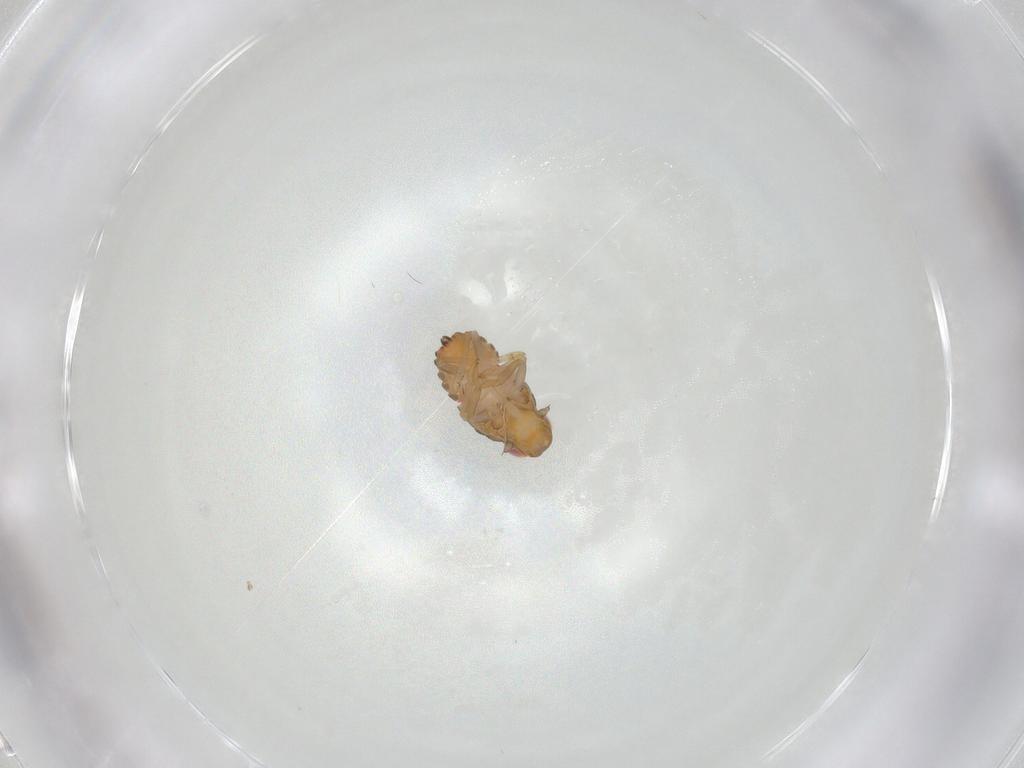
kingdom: Animalia
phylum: Arthropoda
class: Insecta
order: Hemiptera
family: Issidae
